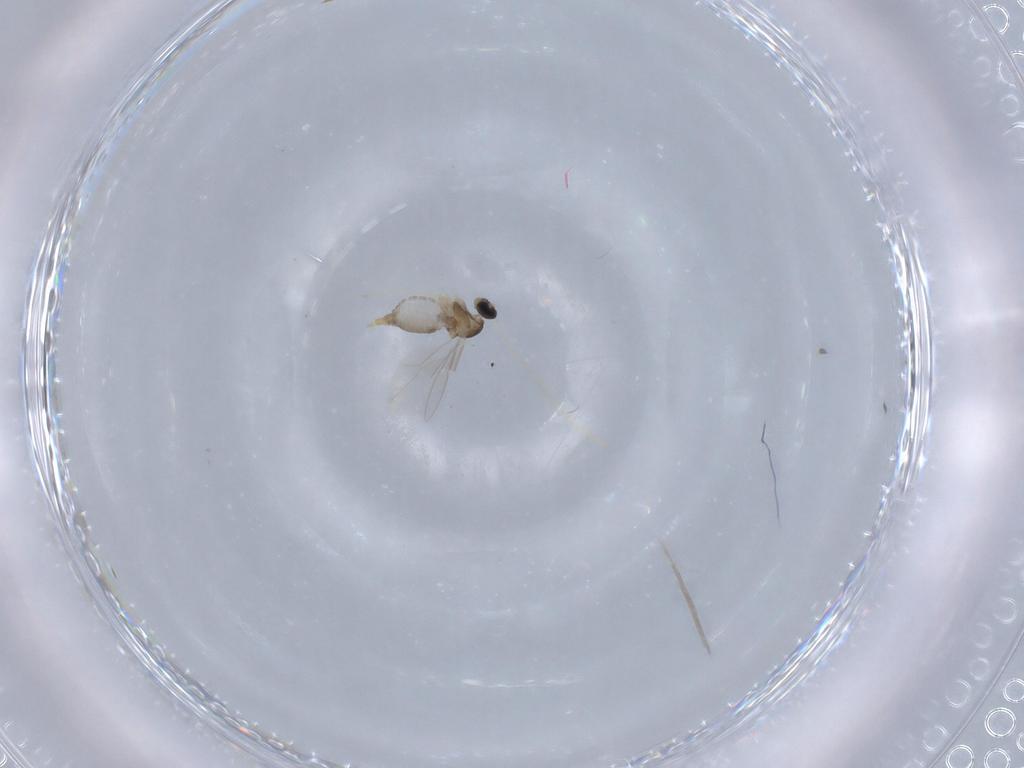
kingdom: Animalia
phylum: Arthropoda
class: Insecta
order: Diptera
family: Cecidomyiidae
